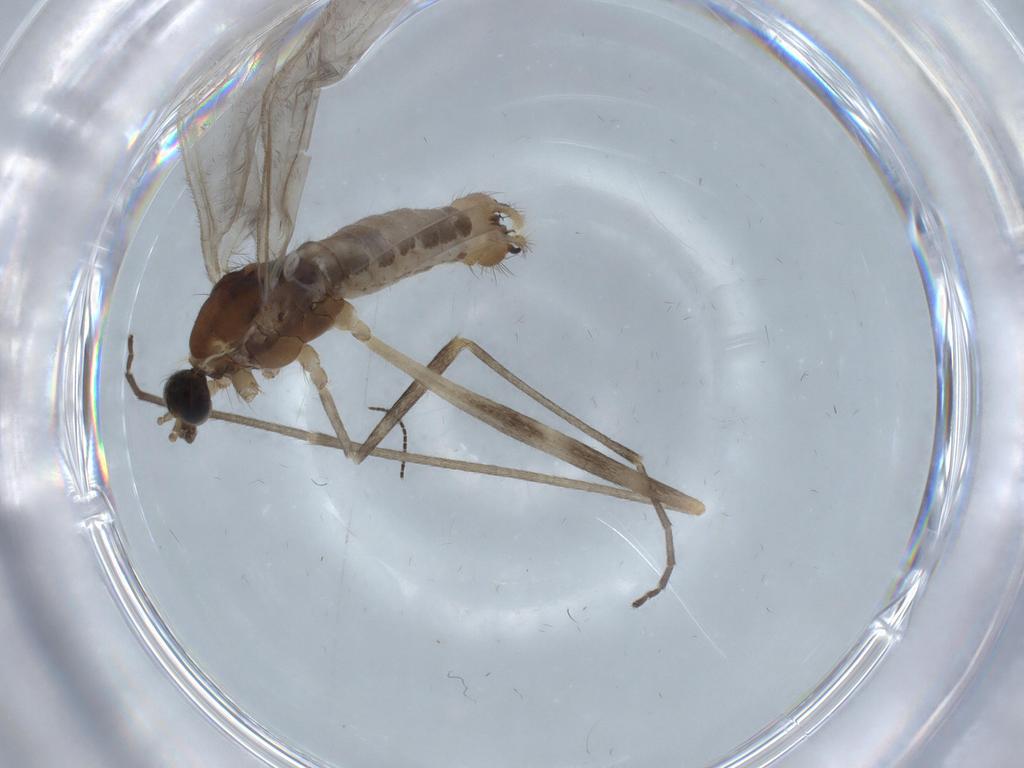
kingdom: Animalia
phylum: Arthropoda
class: Insecta
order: Diptera
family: Limoniidae
